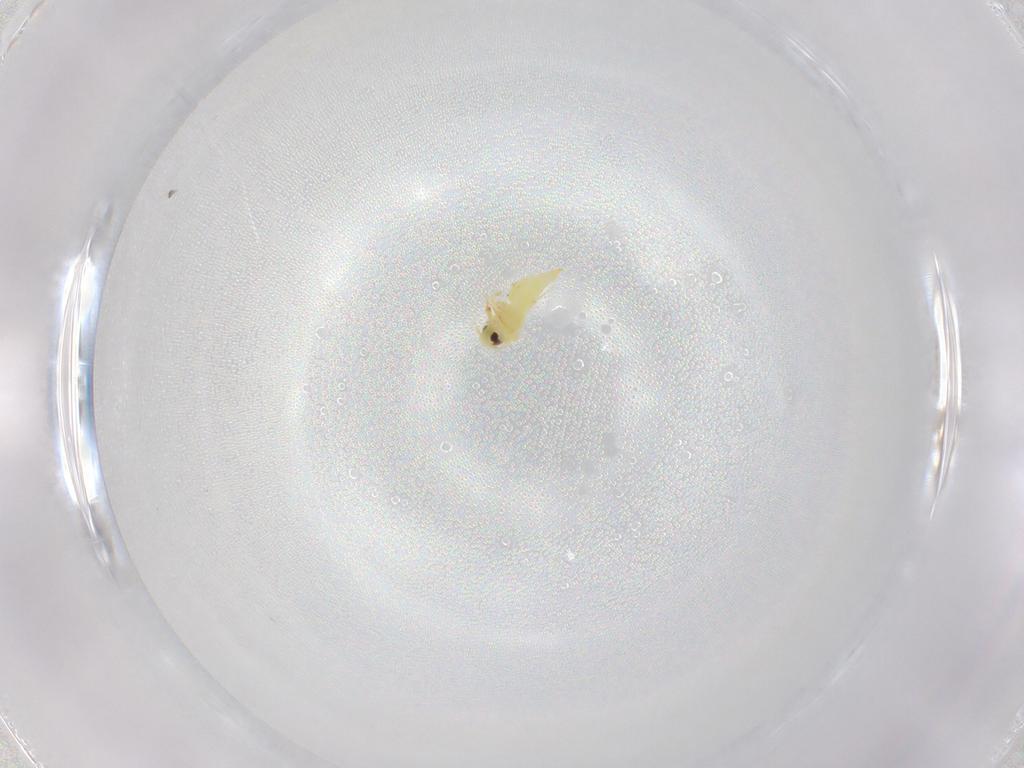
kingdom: Animalia
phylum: Arthropoda
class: Insecta
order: Hemiptera
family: Aleyrodidae
